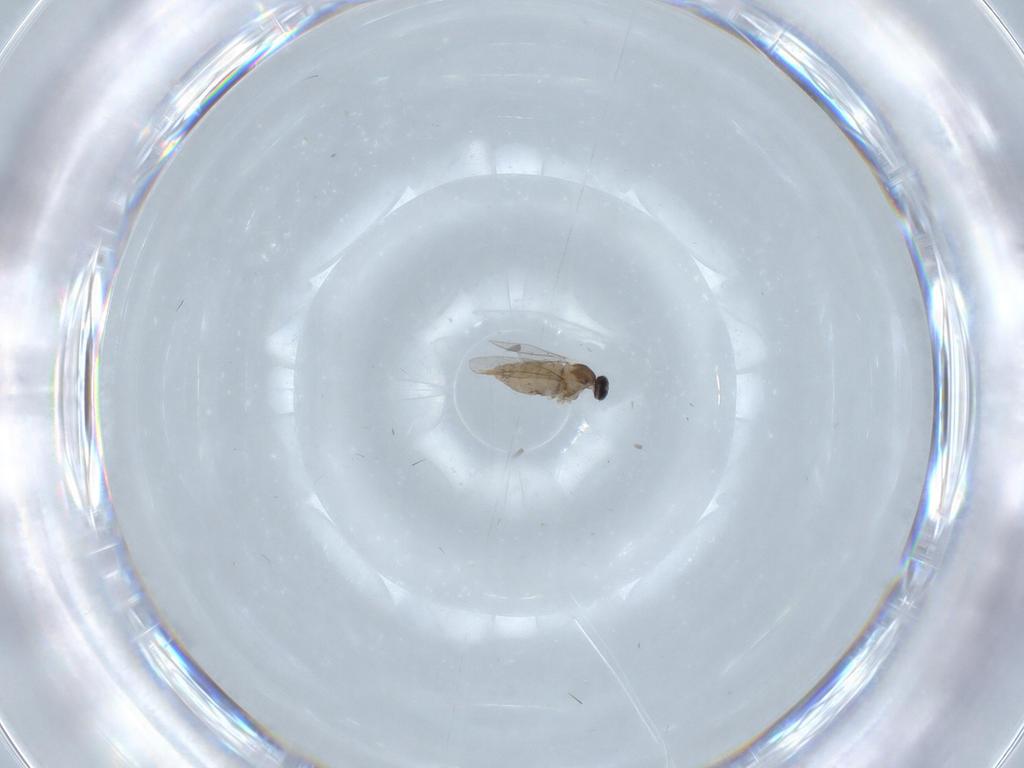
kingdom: Animalia
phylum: Arthropoda
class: Insecta
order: Diptera
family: Cecidomyiidae
